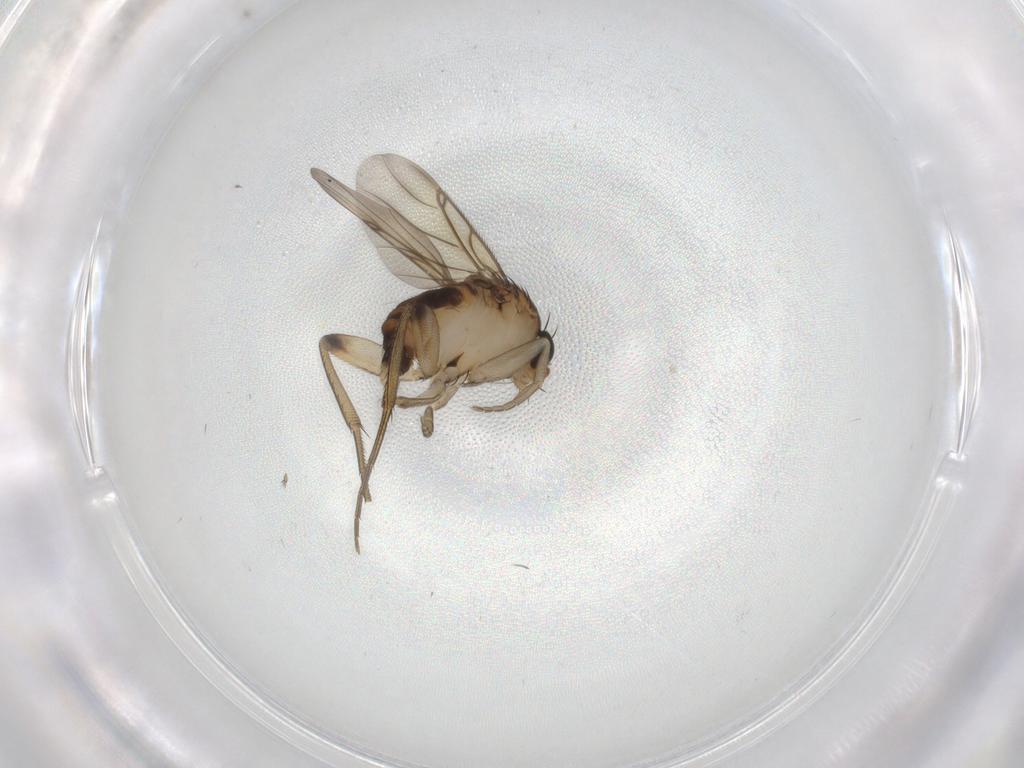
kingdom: Animalia
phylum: Arthropoda
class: Insecta
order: Diptera
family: Phoridae
